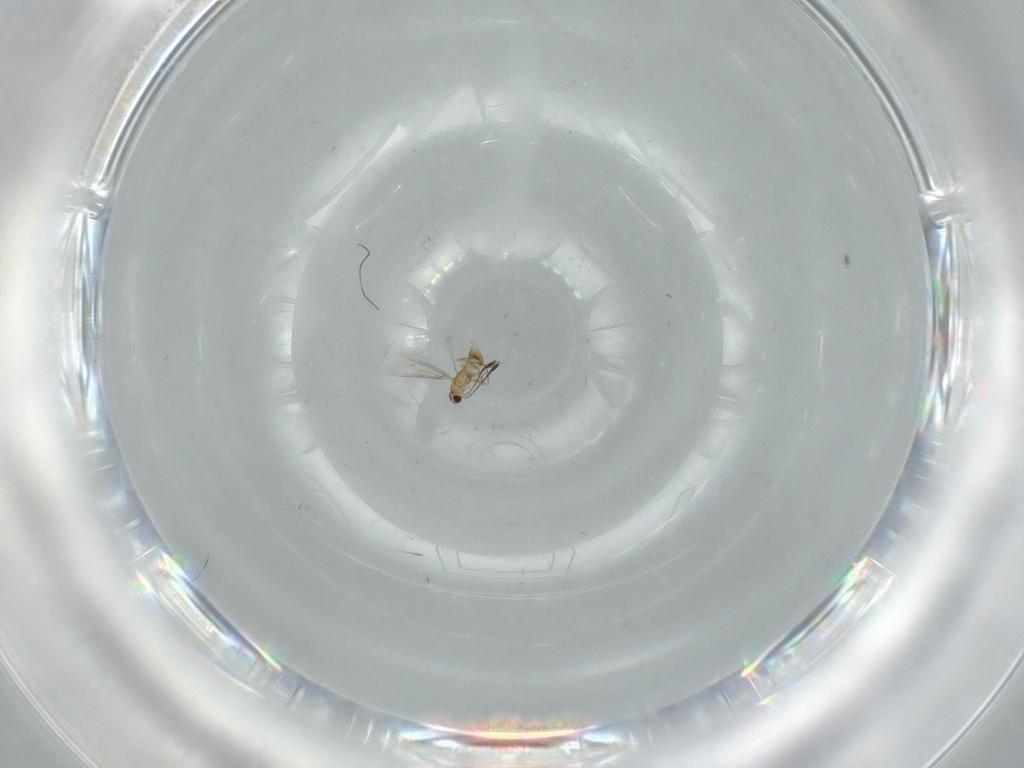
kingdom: Animalia
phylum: Arthropoda
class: Insecta
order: Hymenoptera
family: Mymaridae
